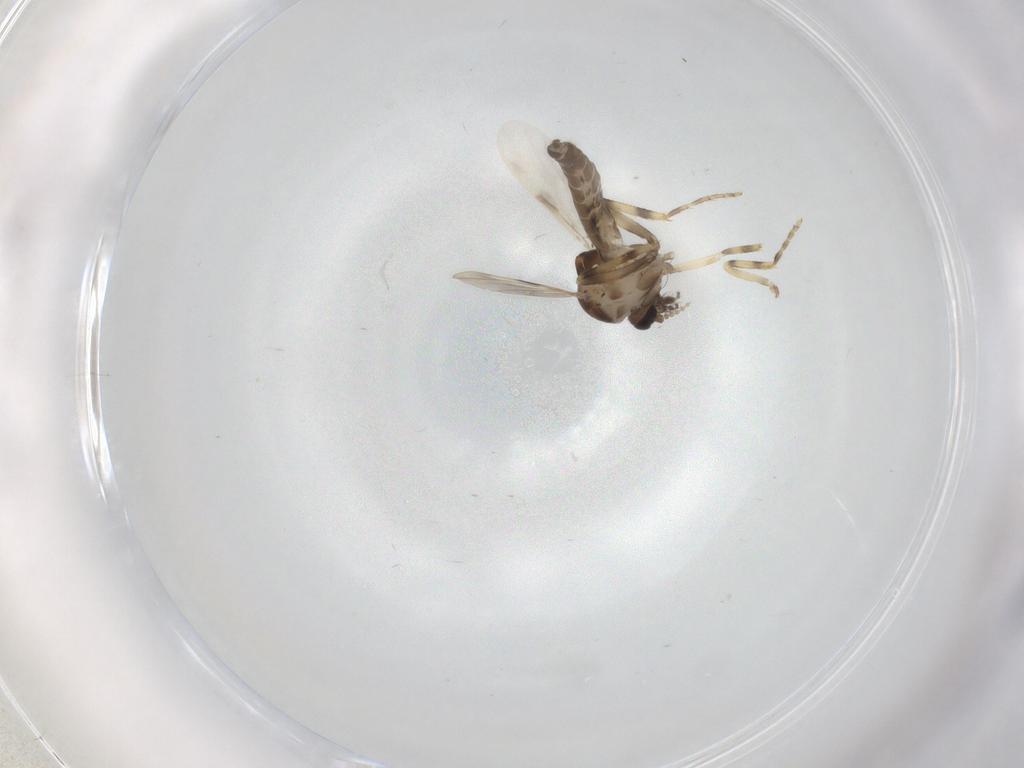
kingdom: Animalia
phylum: Arthropoda
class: Insecta
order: Diptera
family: Ceratopogonidae
